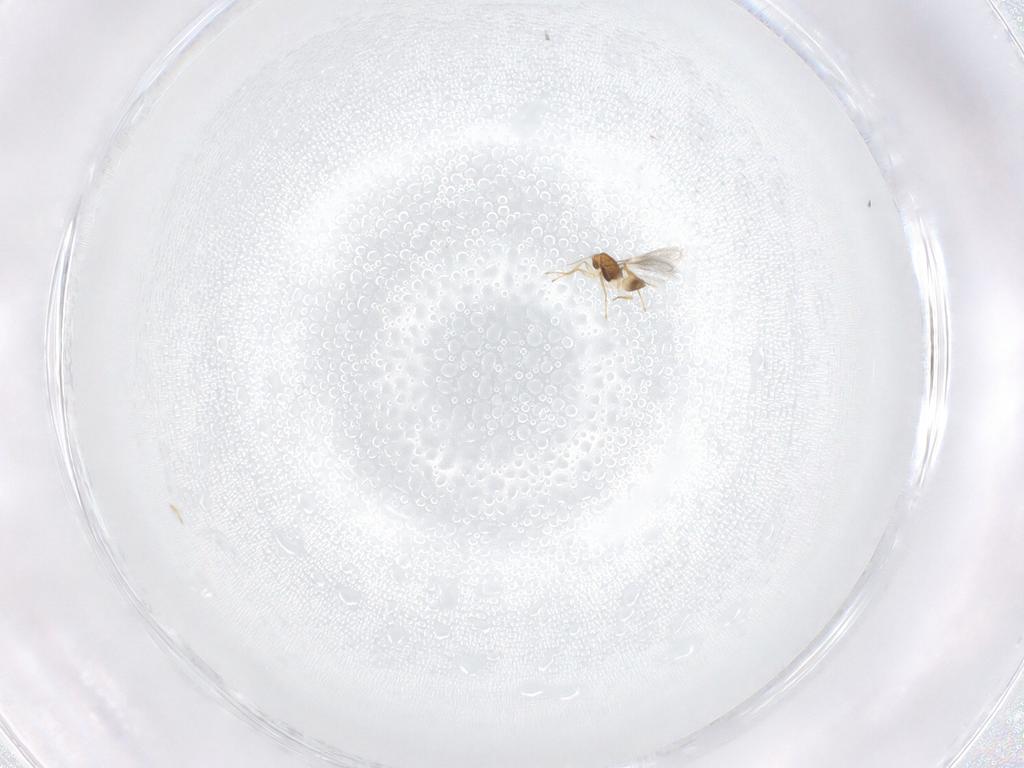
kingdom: Animalia
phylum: Arthropoda
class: Insecta
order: Hymenoptera
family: Mymaridae
